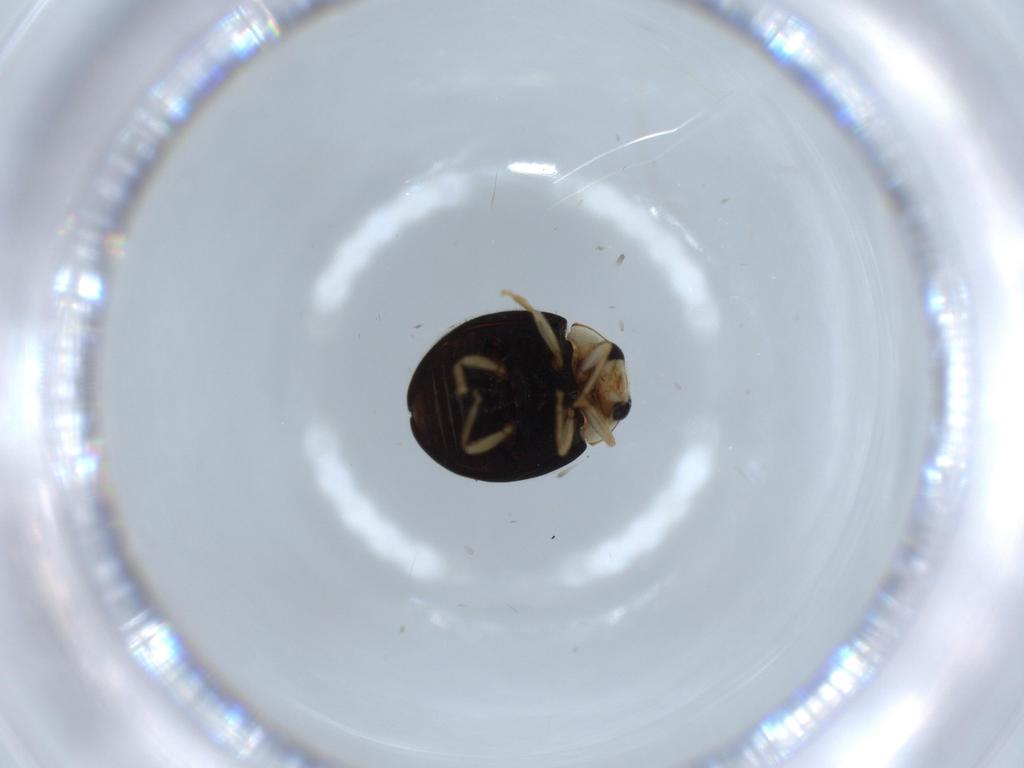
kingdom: Animalia
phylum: Arthropoda
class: Insecta
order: Coleoptera
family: Coccinellidae
